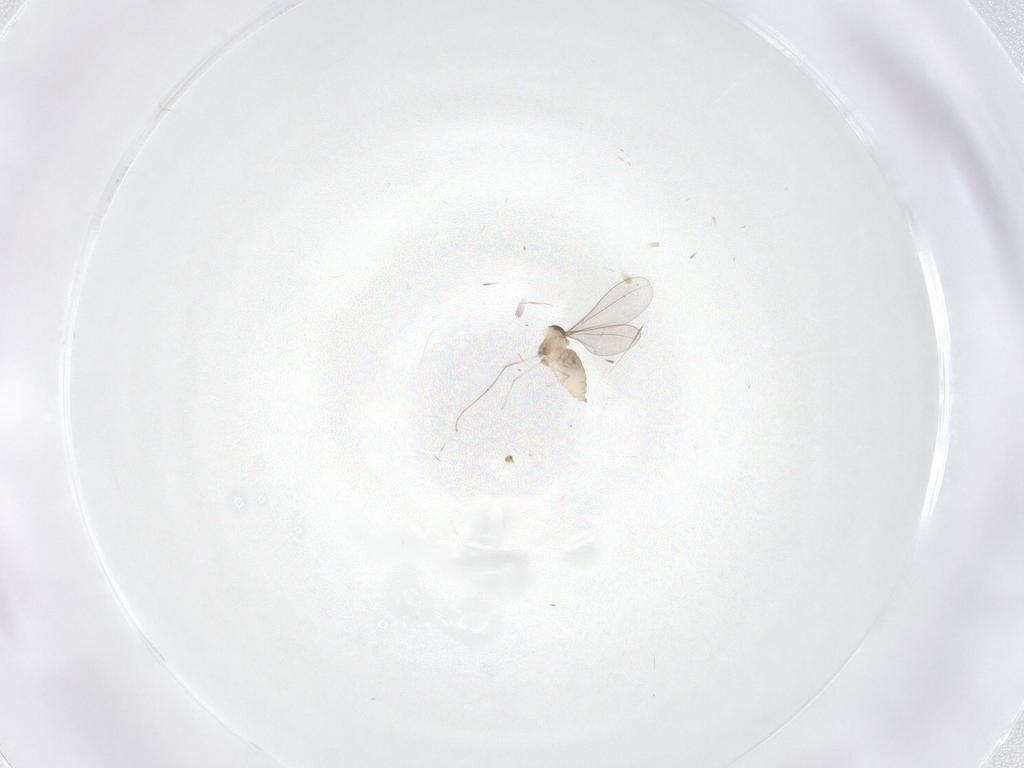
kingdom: Animalia
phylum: Arthropoda
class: Insecta
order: Diptera
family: Cecidomyiidae
